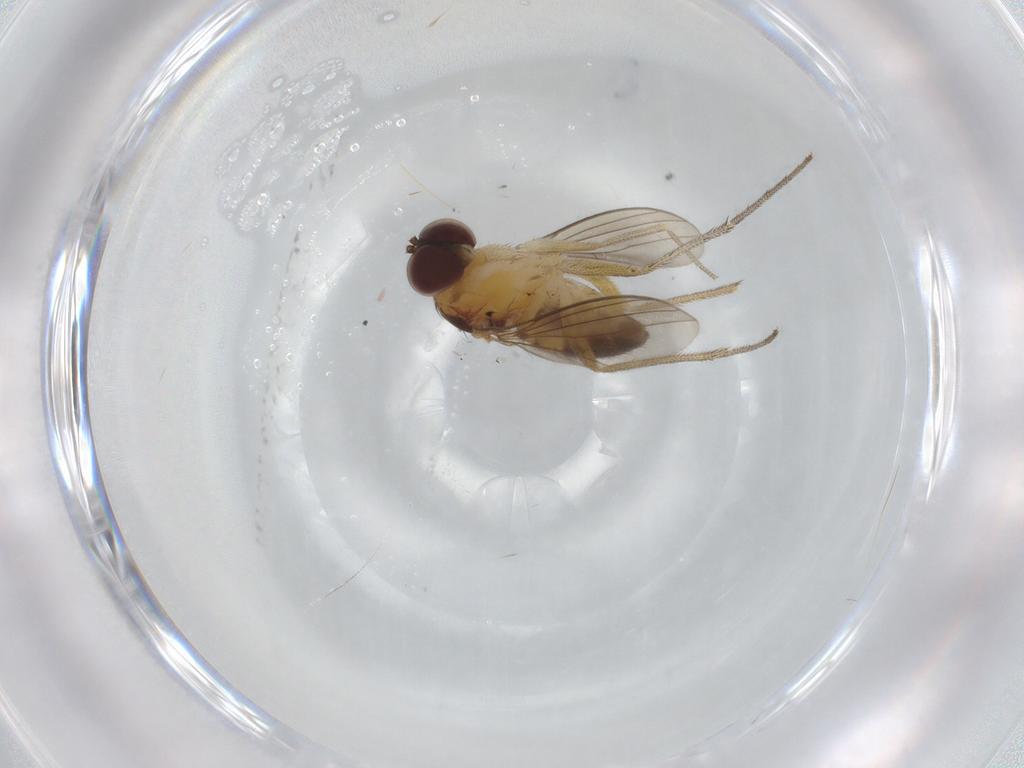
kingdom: Animalia
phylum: Arthropoda
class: Insecta
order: Diptera
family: Dolichopodidae
